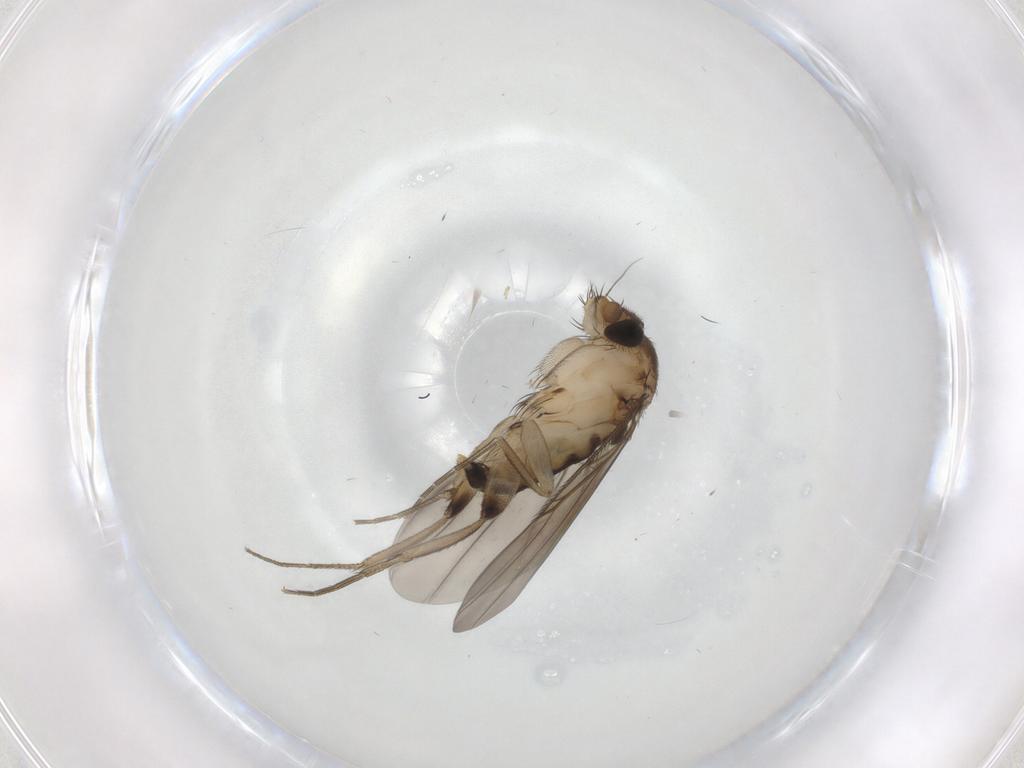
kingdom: Animalia
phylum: Arthropoda
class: Insecta
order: Diptera
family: Phoridae
